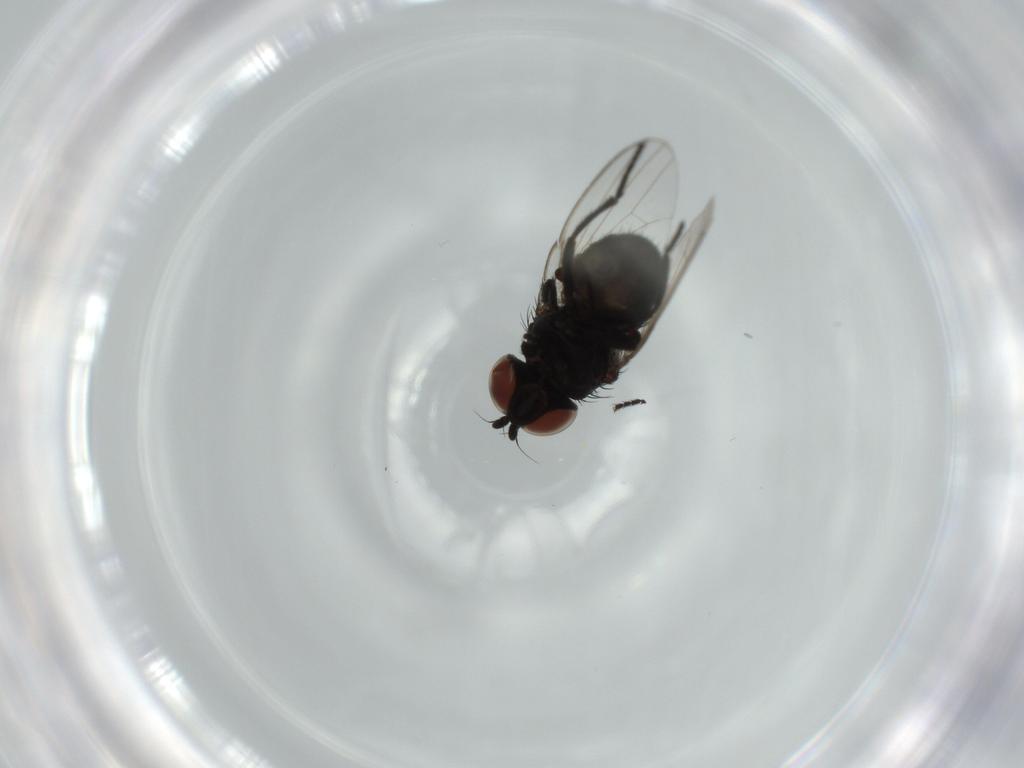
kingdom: Animalia
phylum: Arthropoda
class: Insecta
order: Diptera
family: Milichiidae
